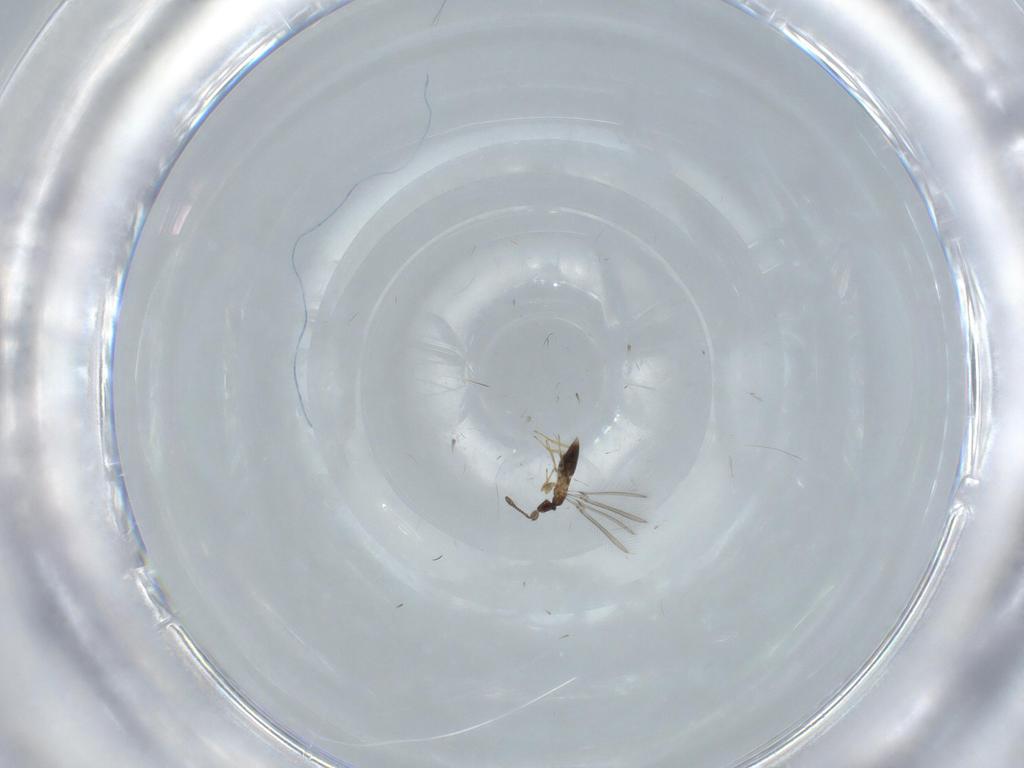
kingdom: Animalia
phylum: Arthropoda
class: Insecta
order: Hymenoptera
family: Mymaridae
